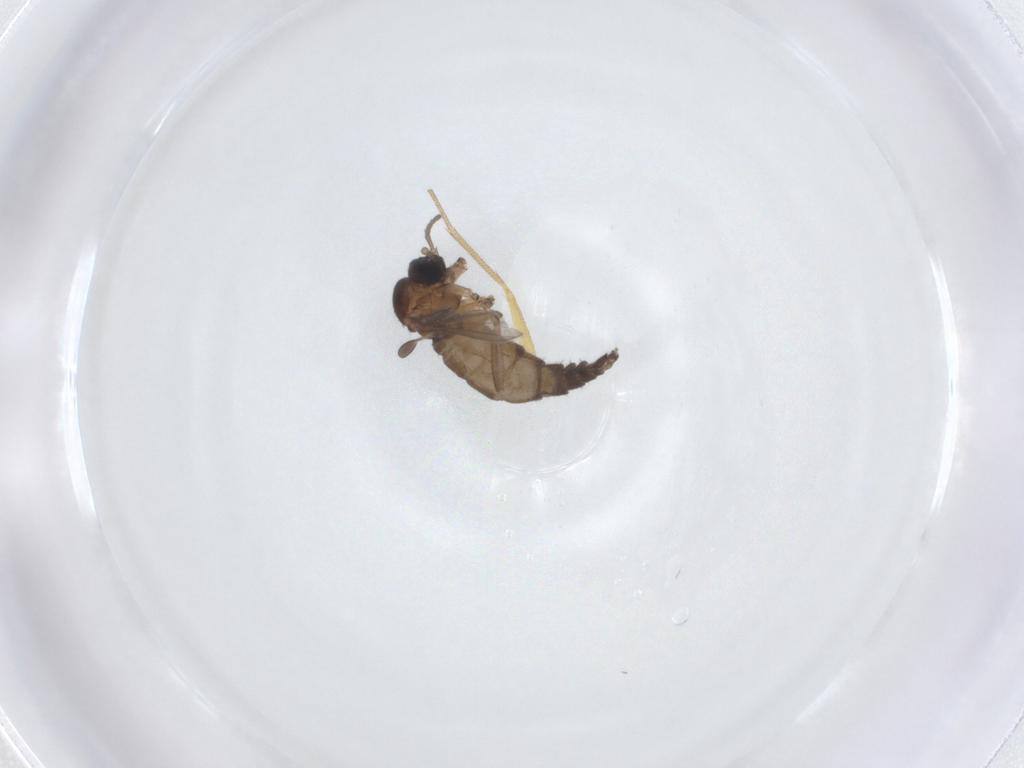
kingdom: Animalia
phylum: Arthropoda
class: Insecta
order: Diptera
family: Sciaridae
